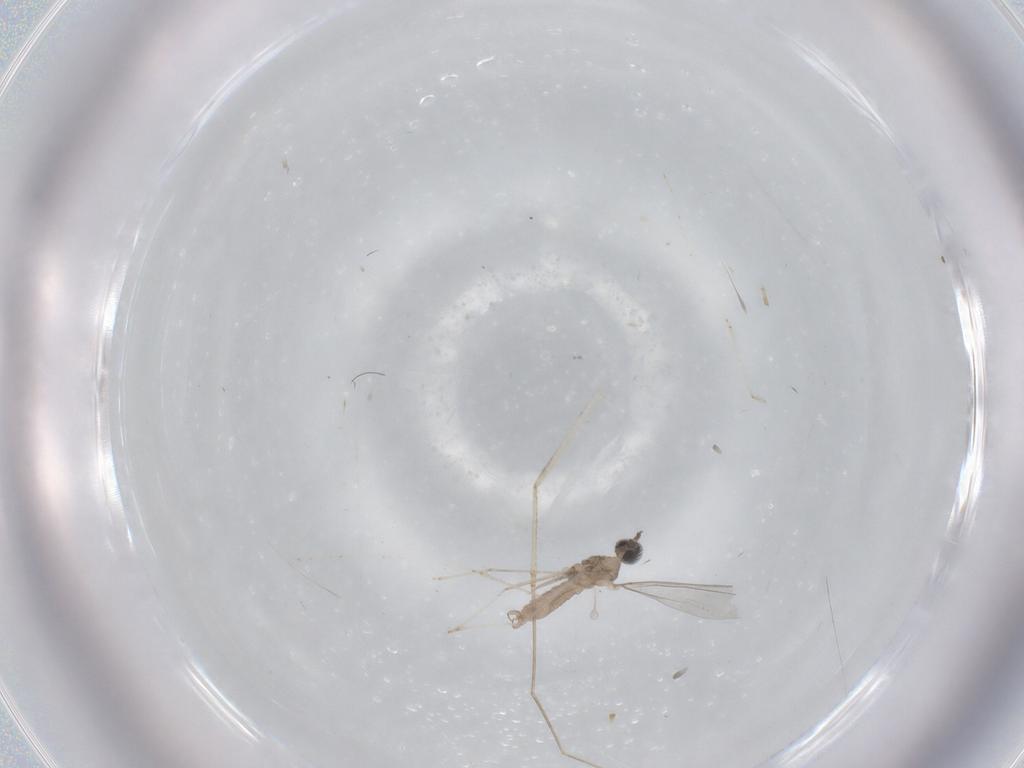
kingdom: Animalia
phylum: Arthropoda
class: Insecta
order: Diptera
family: Cecidomyiidae
